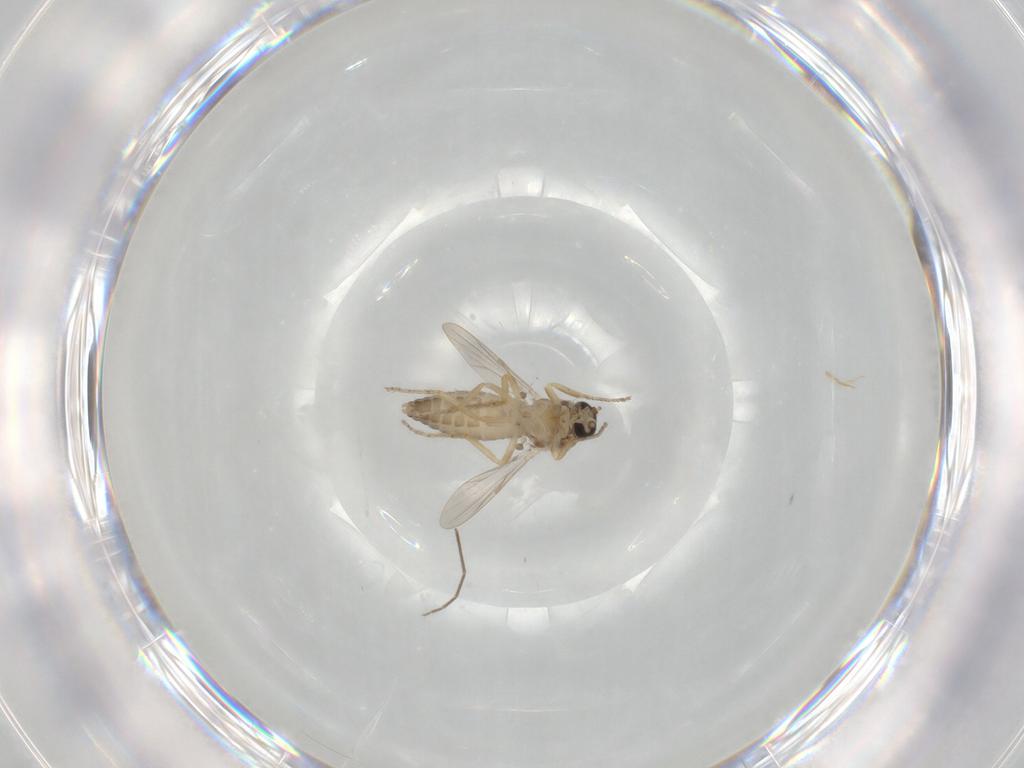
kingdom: Animalia
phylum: Arthropoda
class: Insecta
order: Diptera
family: Ceratopogonidae
